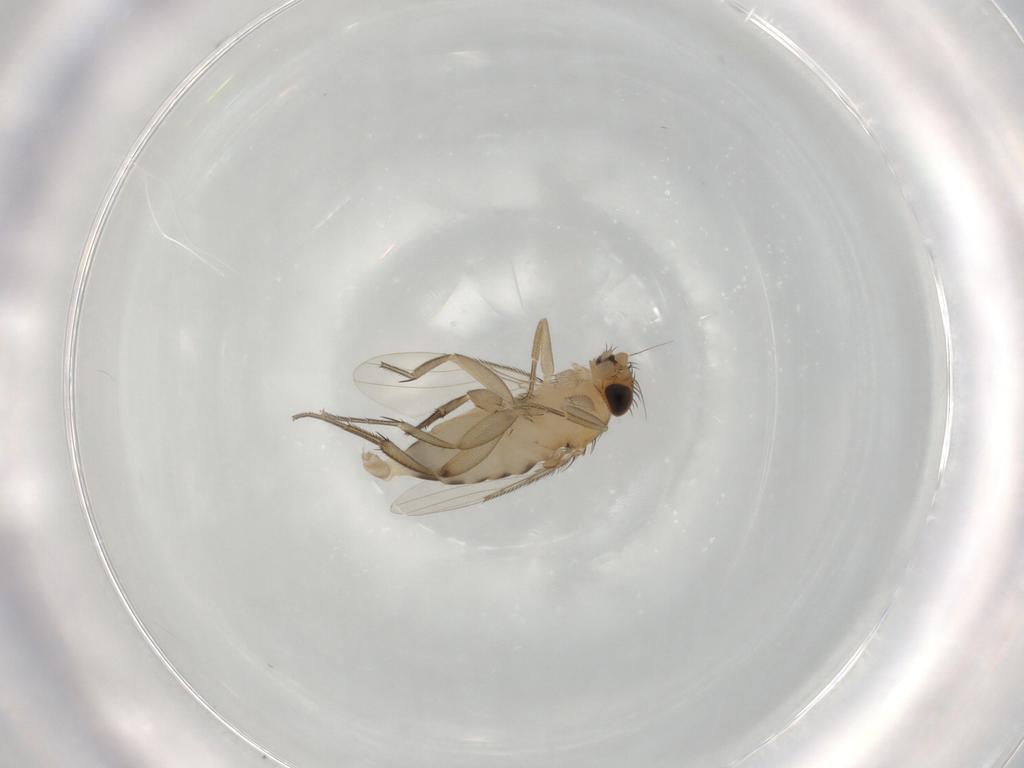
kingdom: Animalia
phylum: Arthropoda
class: Insecta
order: Diptera
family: Phoridae
